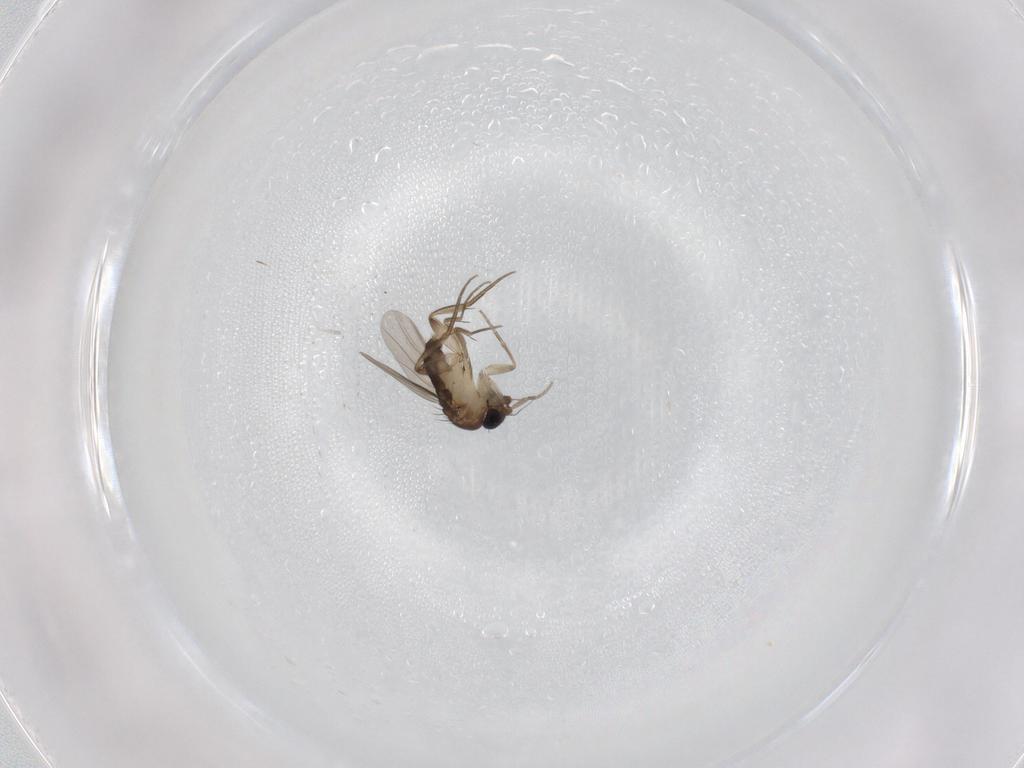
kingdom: Animalia
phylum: Arthropoda
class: Insecta
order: Diptera
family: Phoridae
